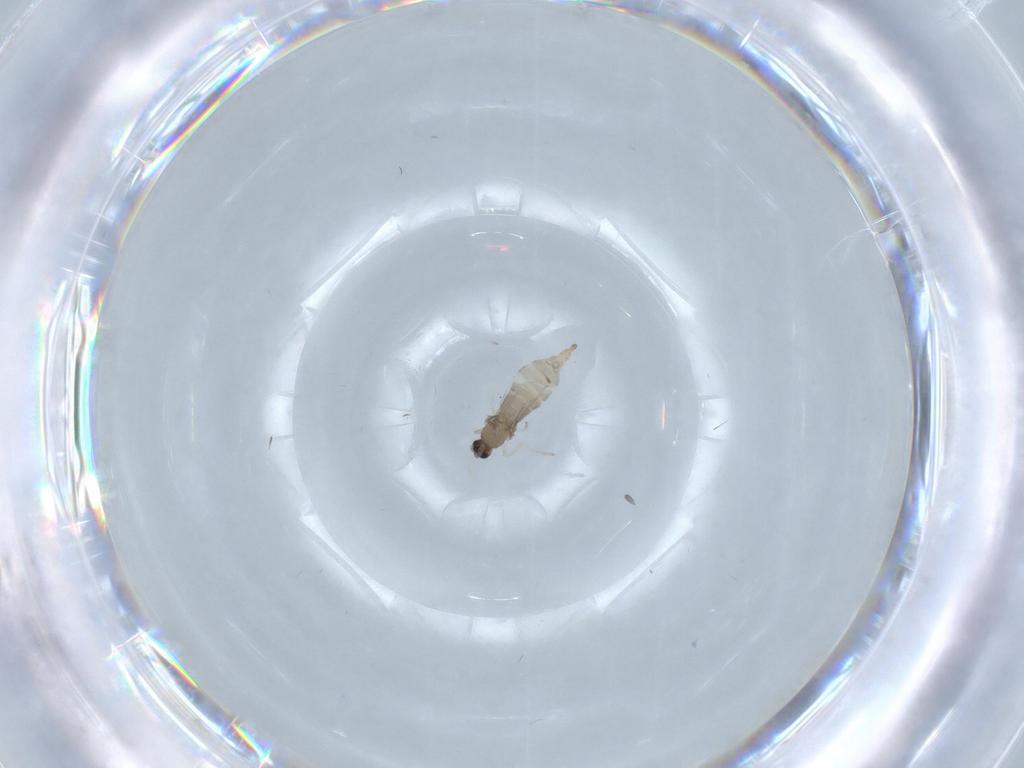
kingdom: Animalia
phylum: Arthropoda
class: Insecta
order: Diptera
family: Cecidomyiidae
